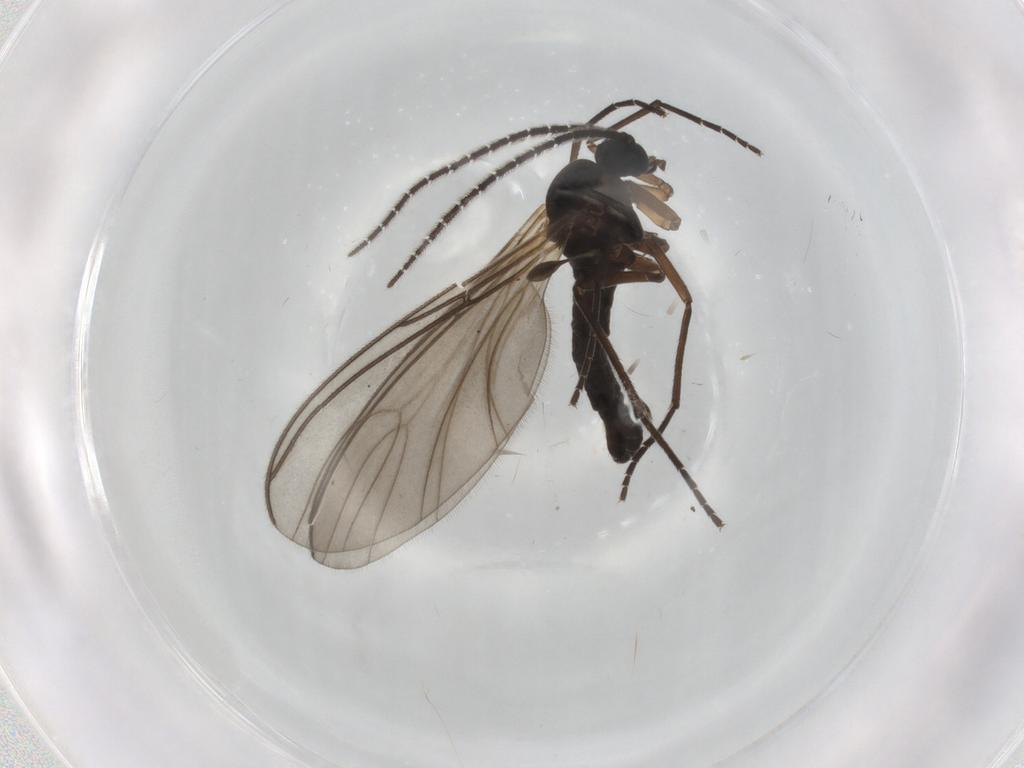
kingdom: Animalia
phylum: Arthropoda
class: Insecta
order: Diptera
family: Sciaridae
